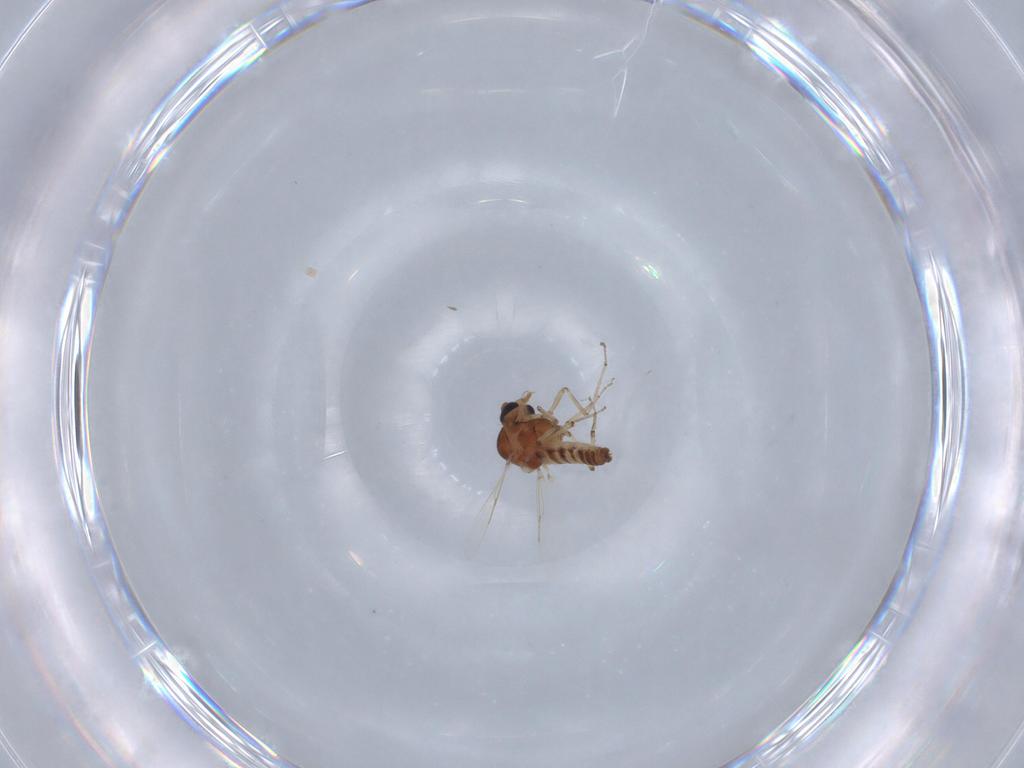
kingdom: Animalia
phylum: Arthropoda
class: Insecta
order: Diptera
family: Ceratopogonidae
